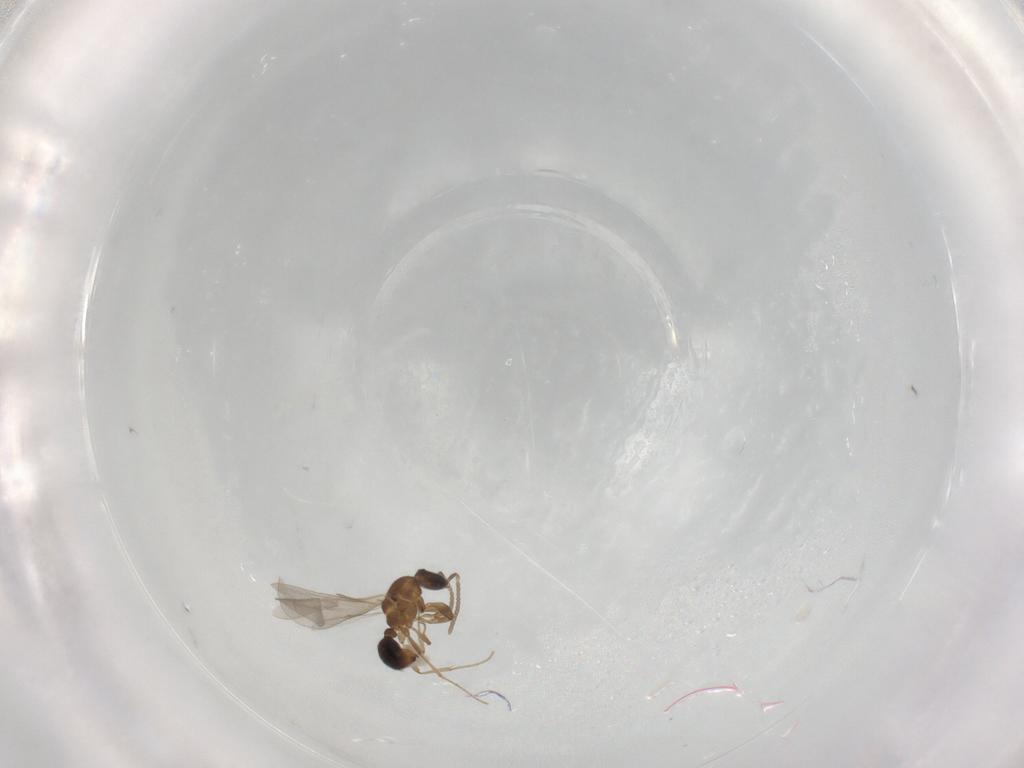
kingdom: Animalia
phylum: Arthropoda
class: Insecta
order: Hymenoptera
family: Formicidae
